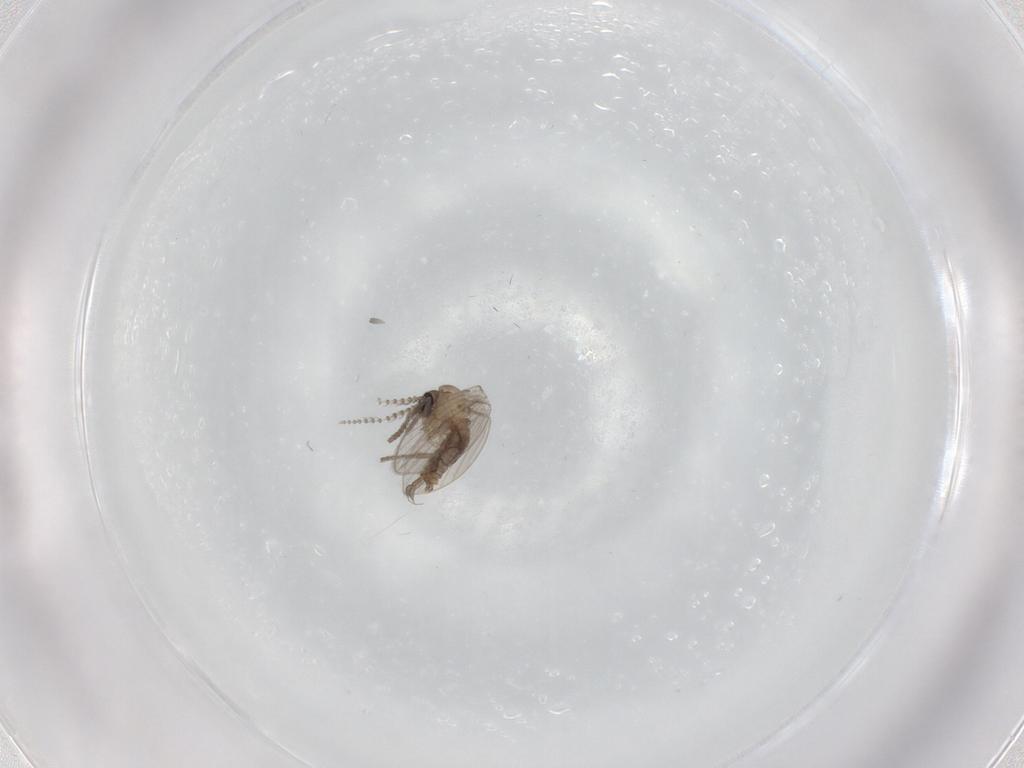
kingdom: Animalia
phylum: Arthropoda
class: Insecta
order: Diptera
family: Psychodidae
